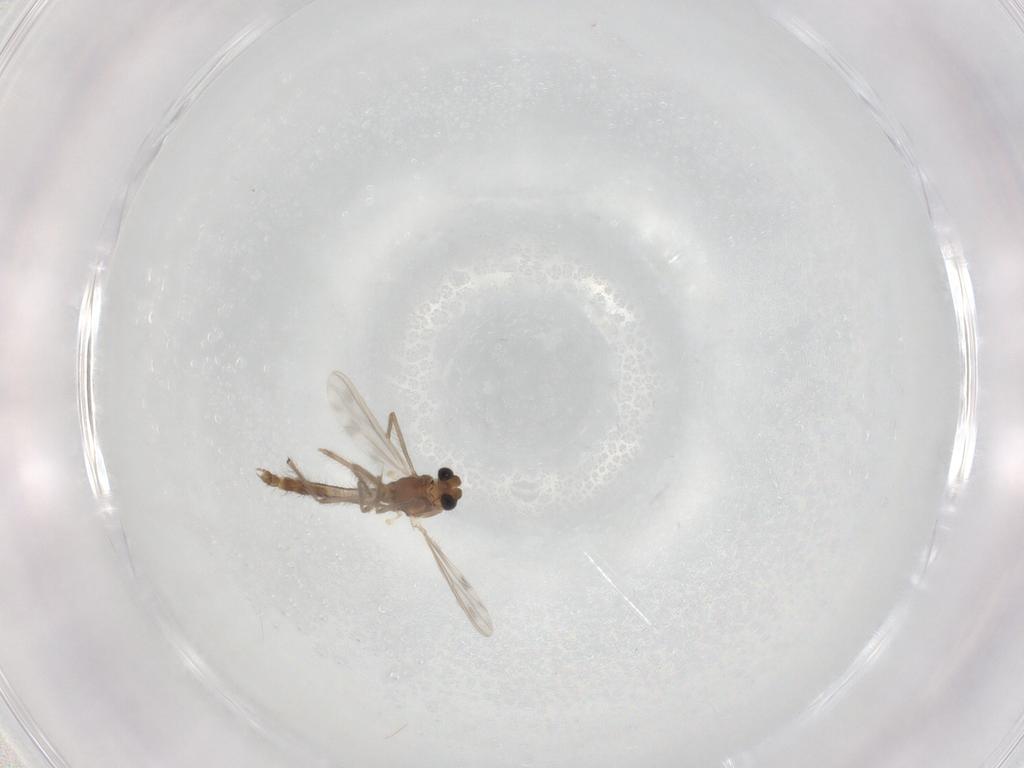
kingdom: Animalia
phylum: Arthropoda
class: Insecta
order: Diptera
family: Chironomidae
